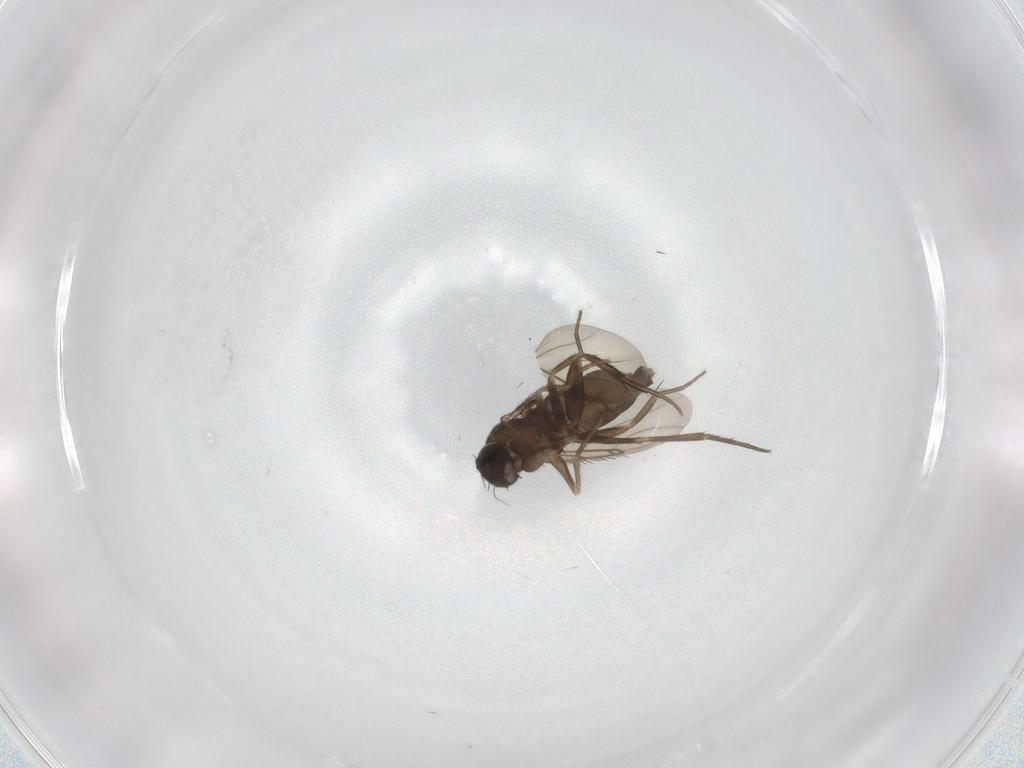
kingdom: Animalia
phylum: Arthropoda
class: Insecta
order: Diptera
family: Phoridae
